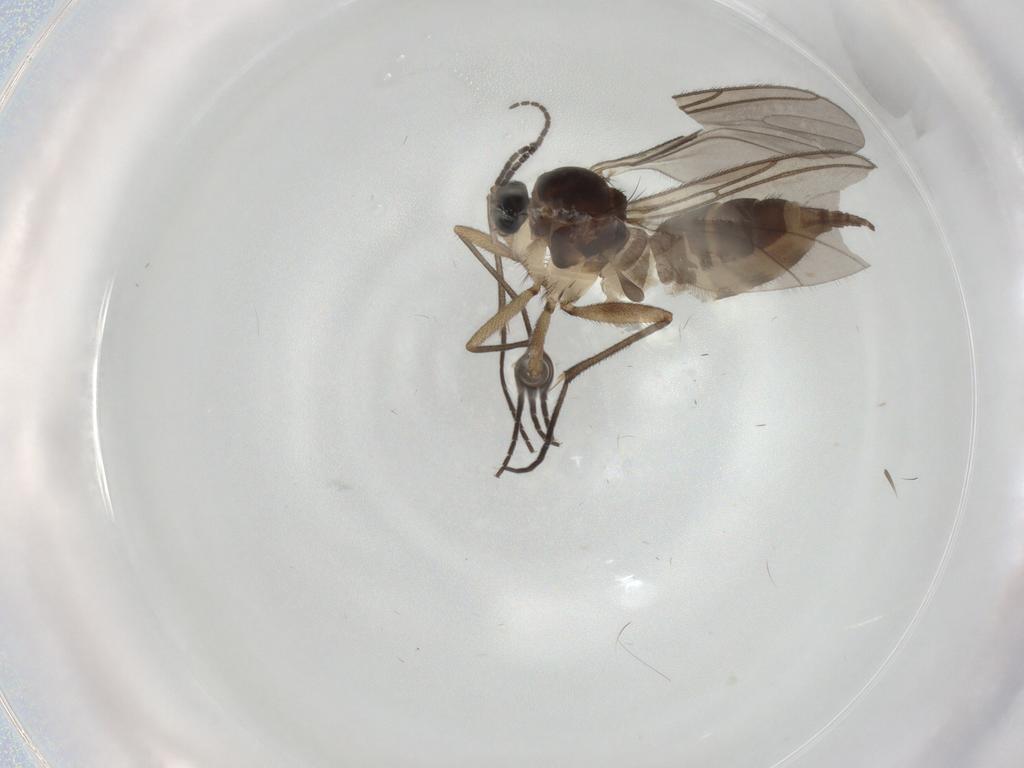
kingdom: Animalia
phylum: Arthropoda
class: Insecta
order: Diptera
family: Sciaridae
